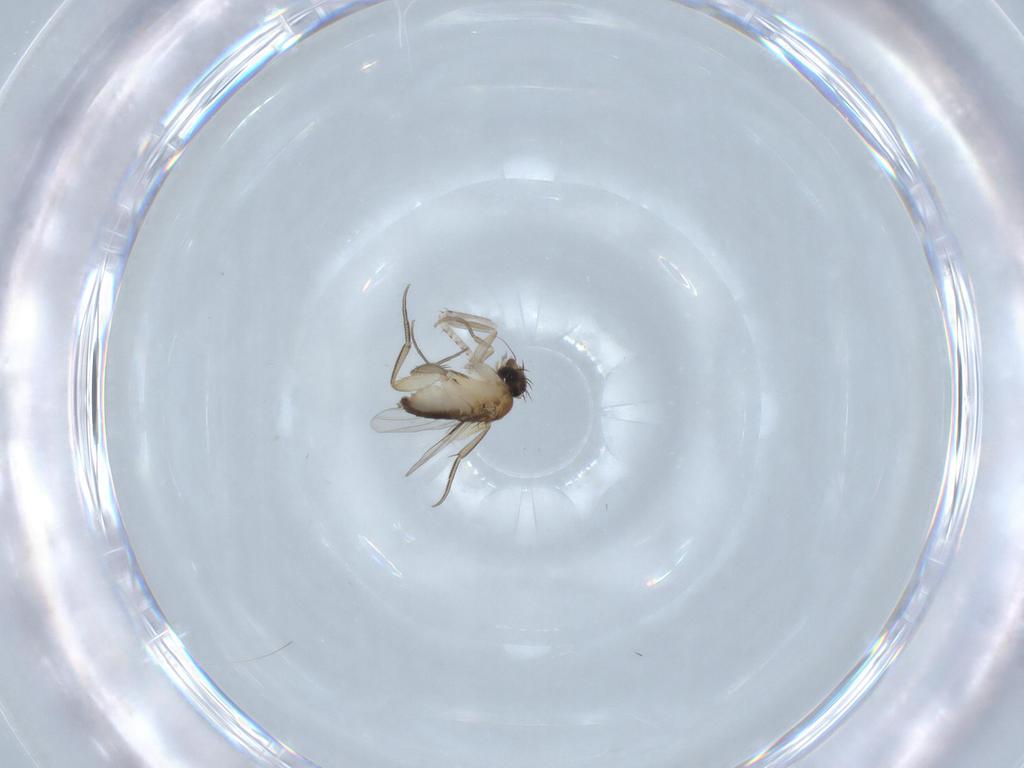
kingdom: Animalia
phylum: Arthropoda
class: Insecta
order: Diptera
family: Phoridae
